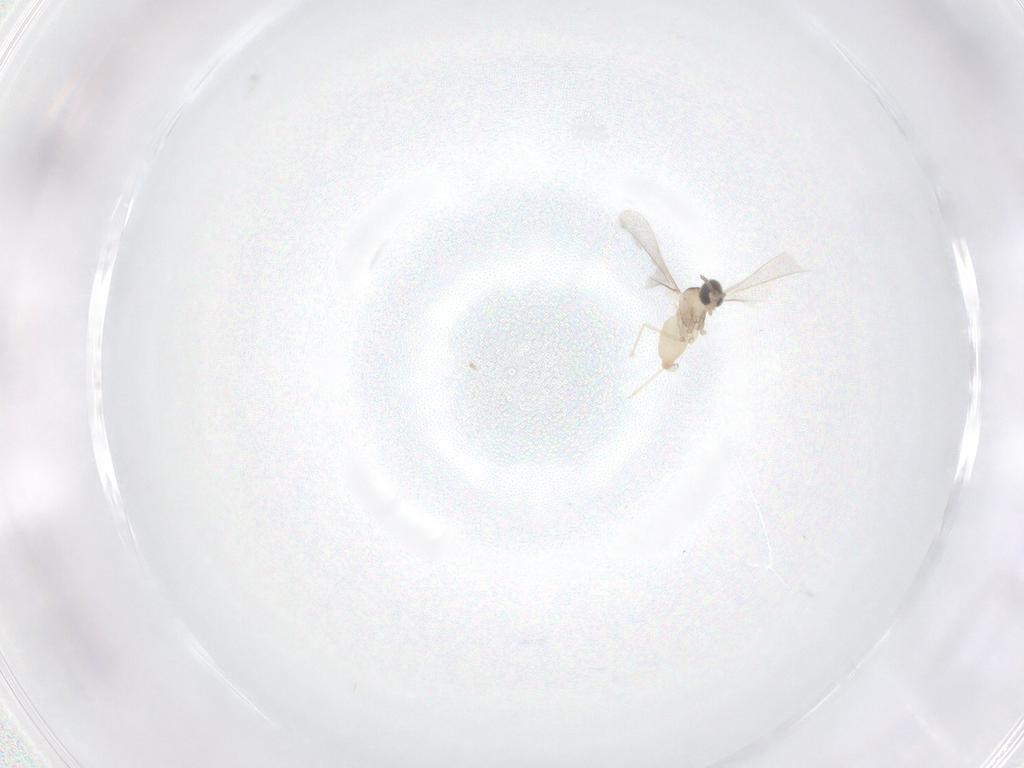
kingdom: Animalia
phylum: Arthropoda
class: Insecta
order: Diptera
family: Cecidomyiidae
